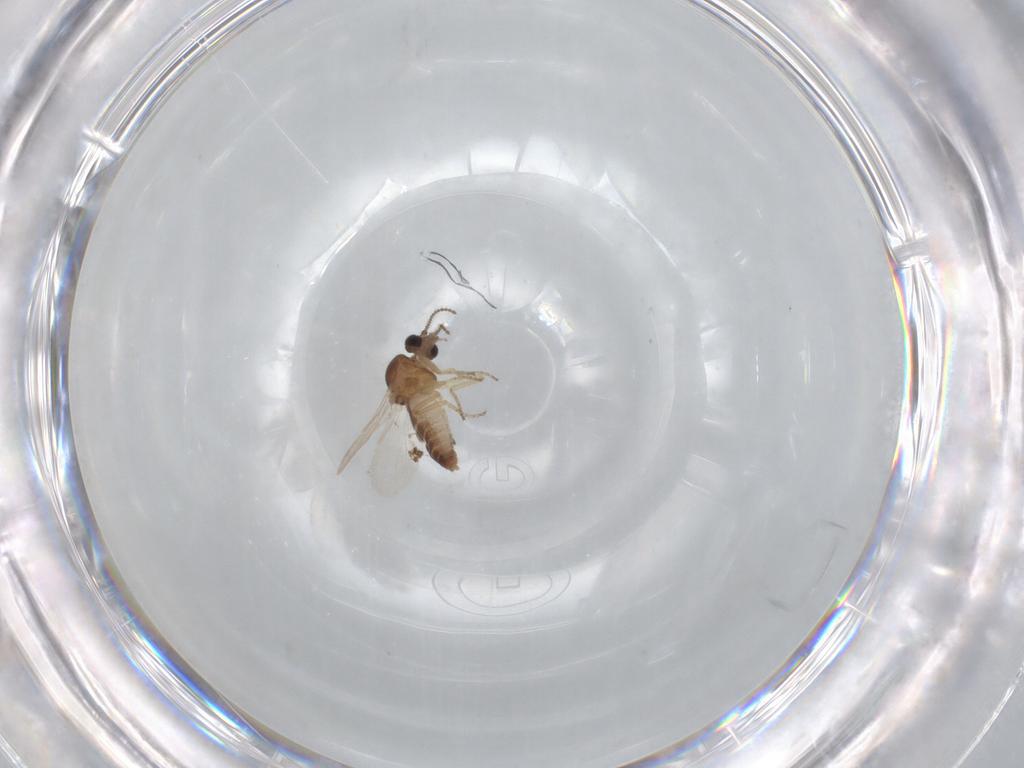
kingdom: Animalia
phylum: Arthropoda
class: Insecta
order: Diptera
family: Ceratopogonidae
